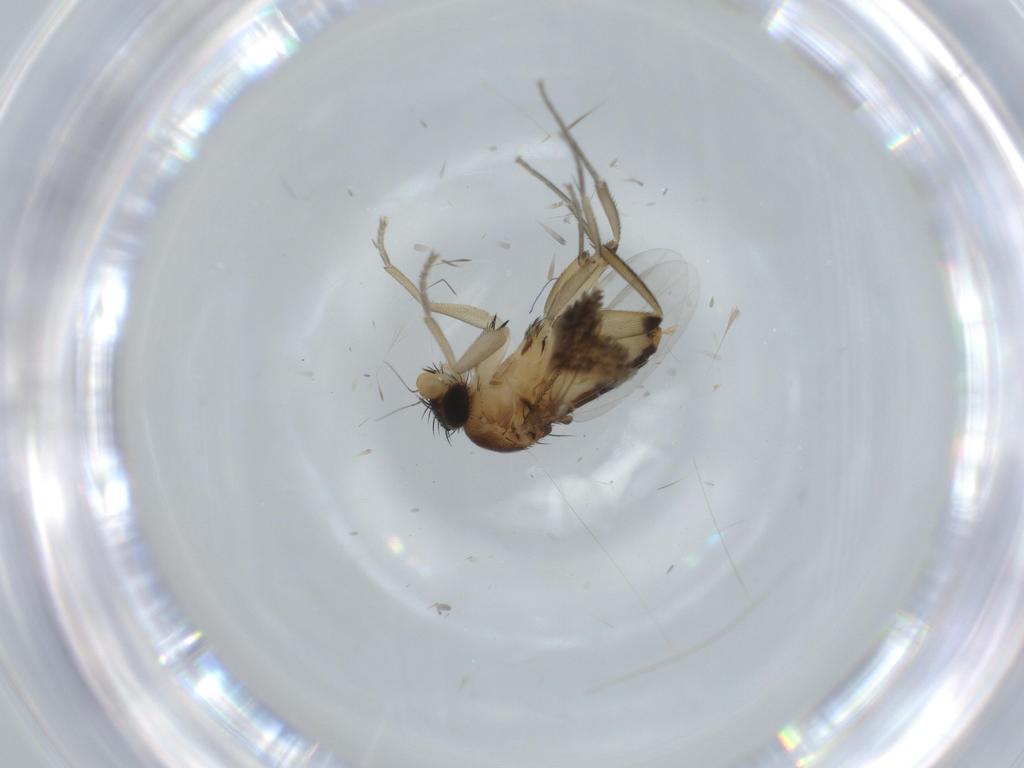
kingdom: Animalia
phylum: Arthropoda
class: Insecta
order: Diptera
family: Phoridae
